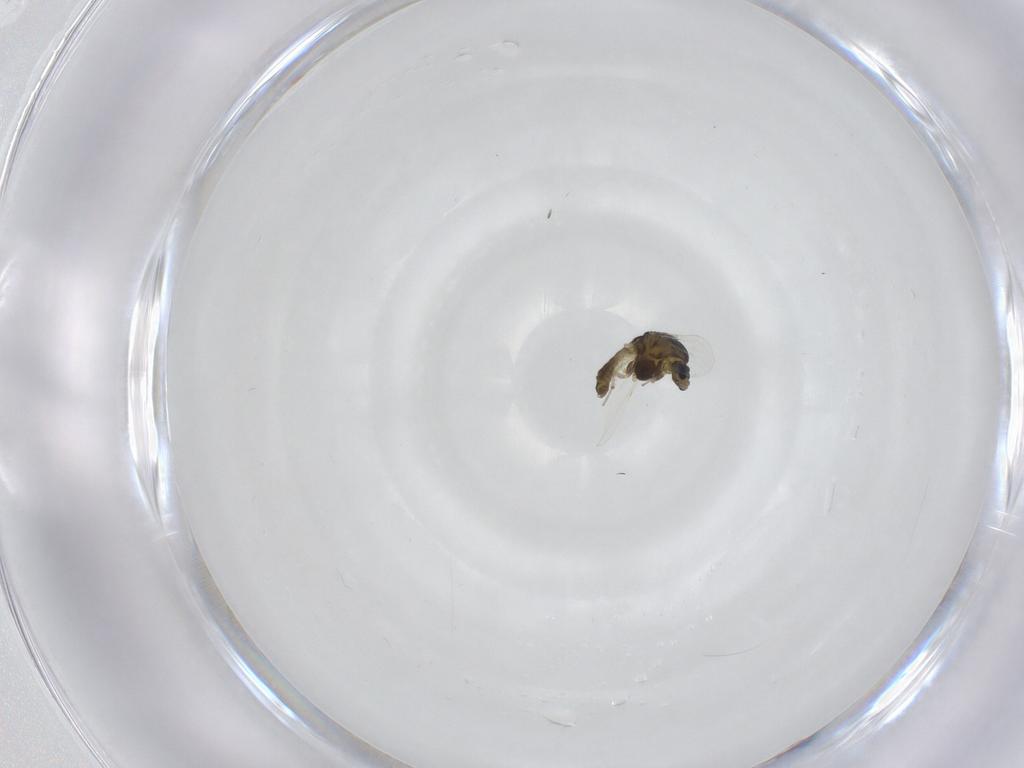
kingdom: Animalia
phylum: Arthropoda
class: Insecta
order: Diptera
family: Chironomidae
